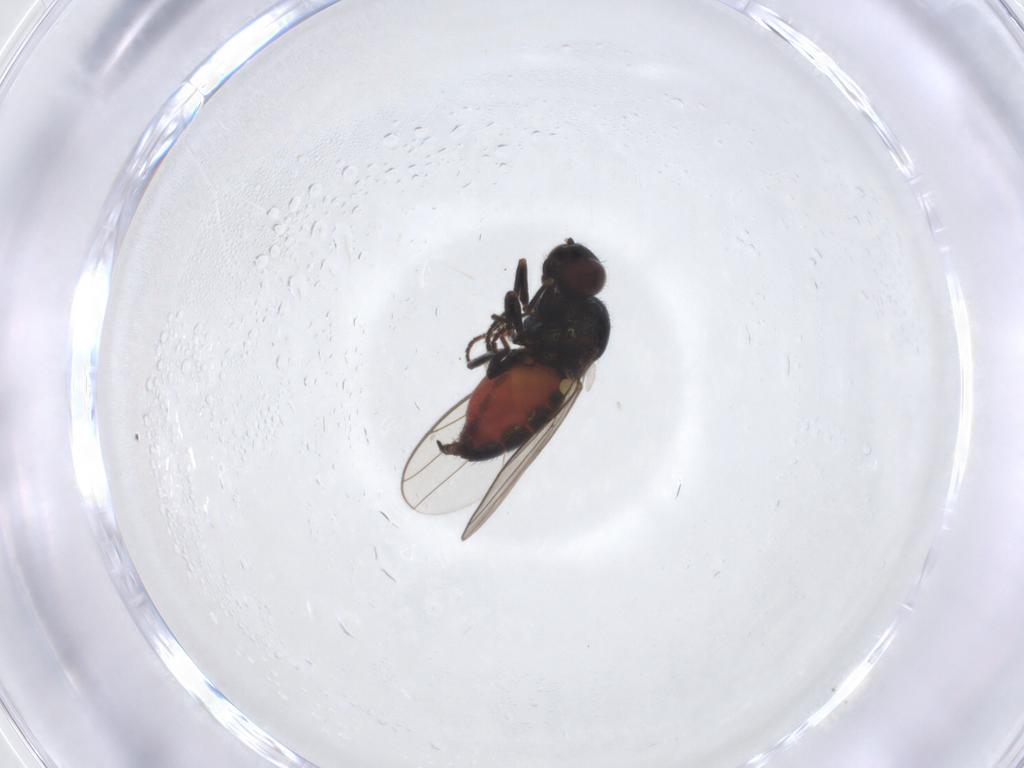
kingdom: Animalia
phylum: Arthropoda
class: Insecta
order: Diptera
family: Chloropidae
